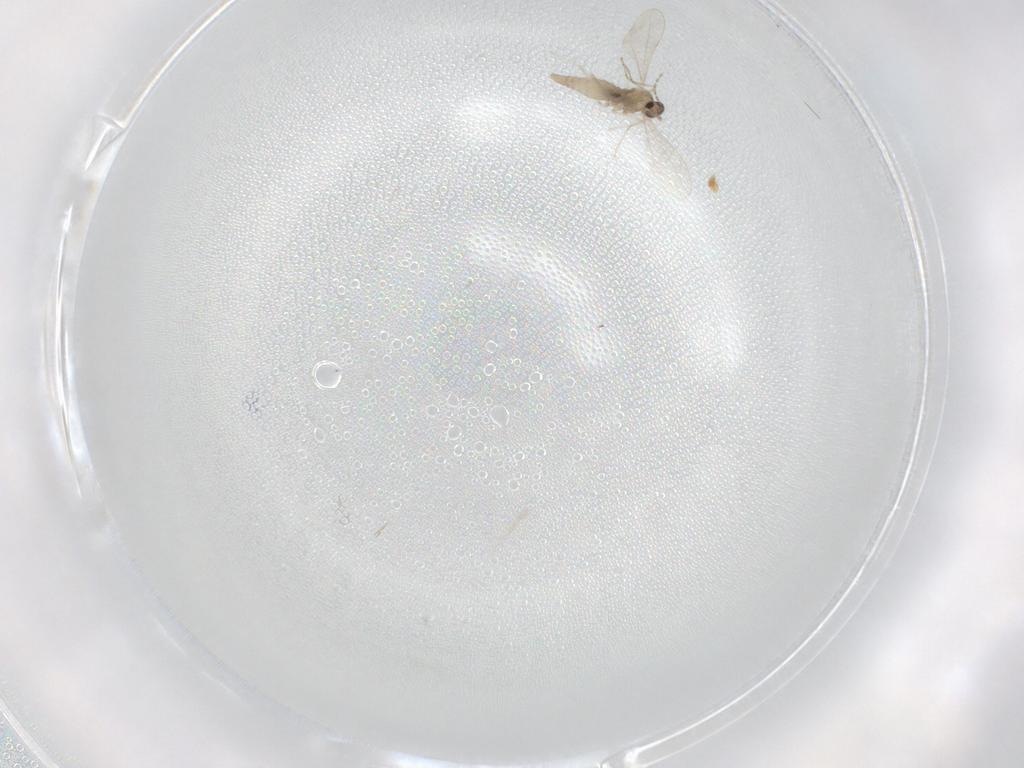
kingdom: Animalia
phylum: Arthropoda
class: Insecta
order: Diptera
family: Cecidomyiidae
